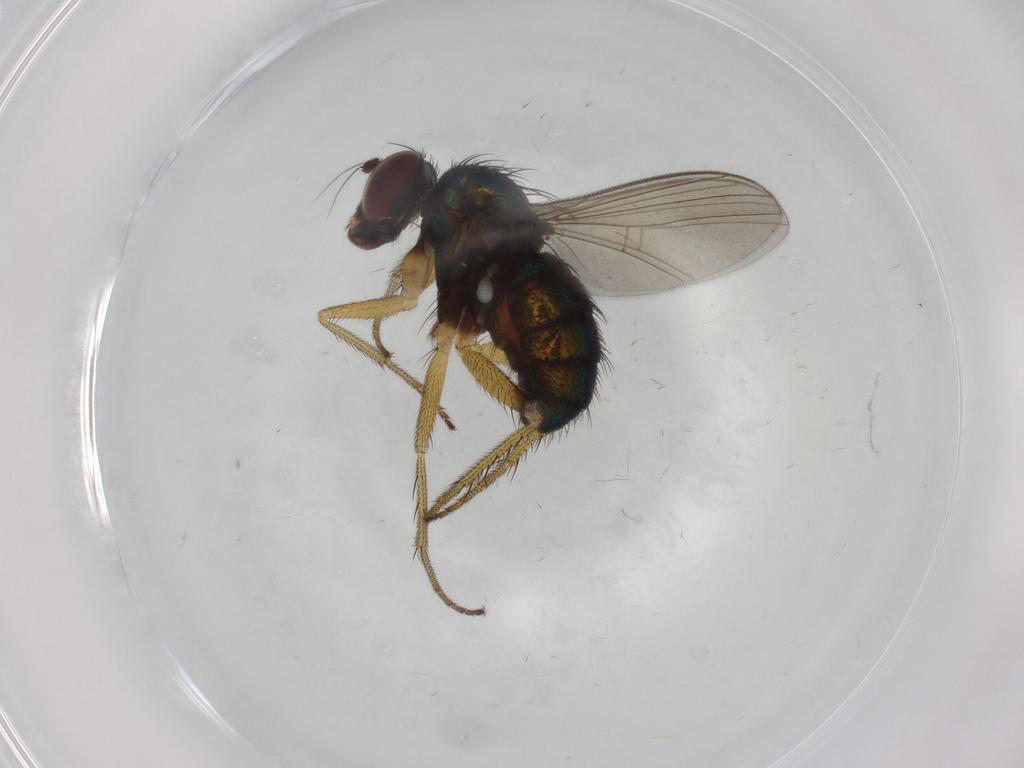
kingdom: Animalia
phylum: Arthropoda
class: Insecta
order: Diptera
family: Dolichopodidae
